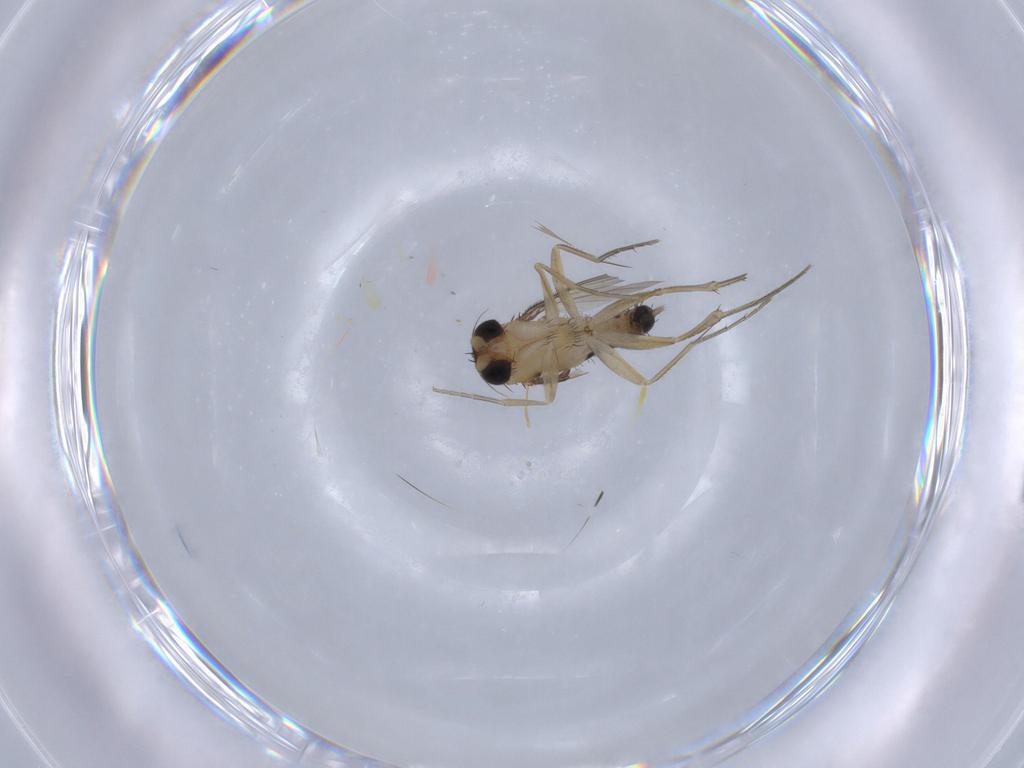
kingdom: Animalia
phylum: Arthropoda
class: Insecta
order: Diptera
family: Phoridae
